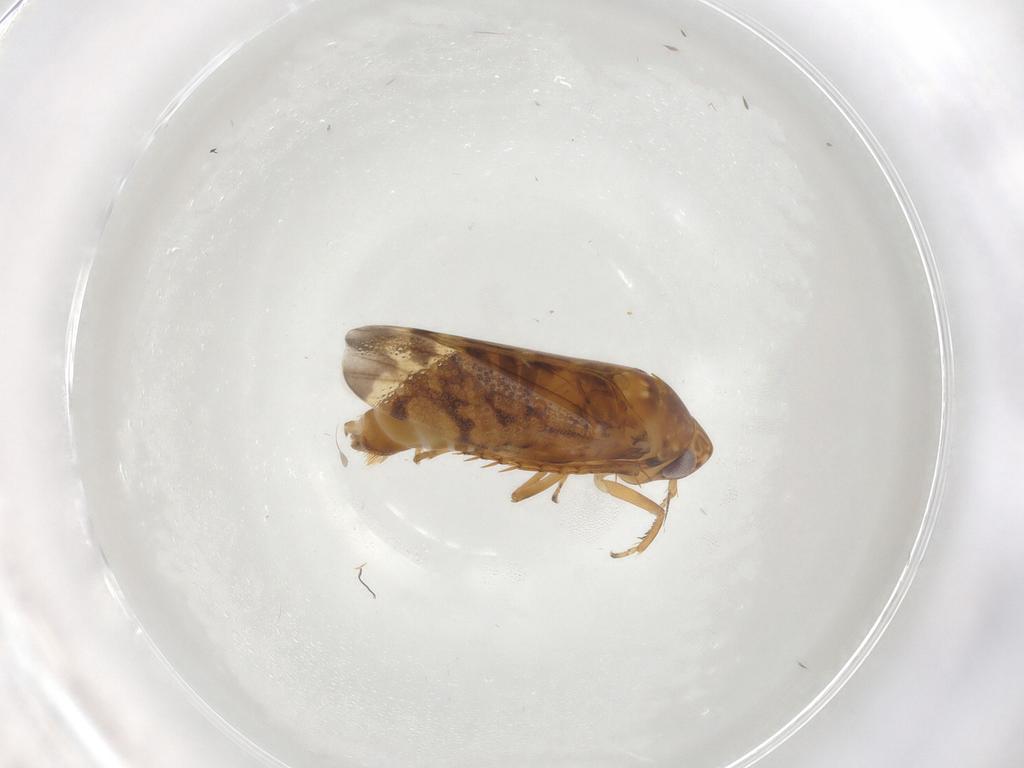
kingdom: Animalia
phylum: Arthropoda
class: Insecta
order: Hemiptera
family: Cicadellidae
